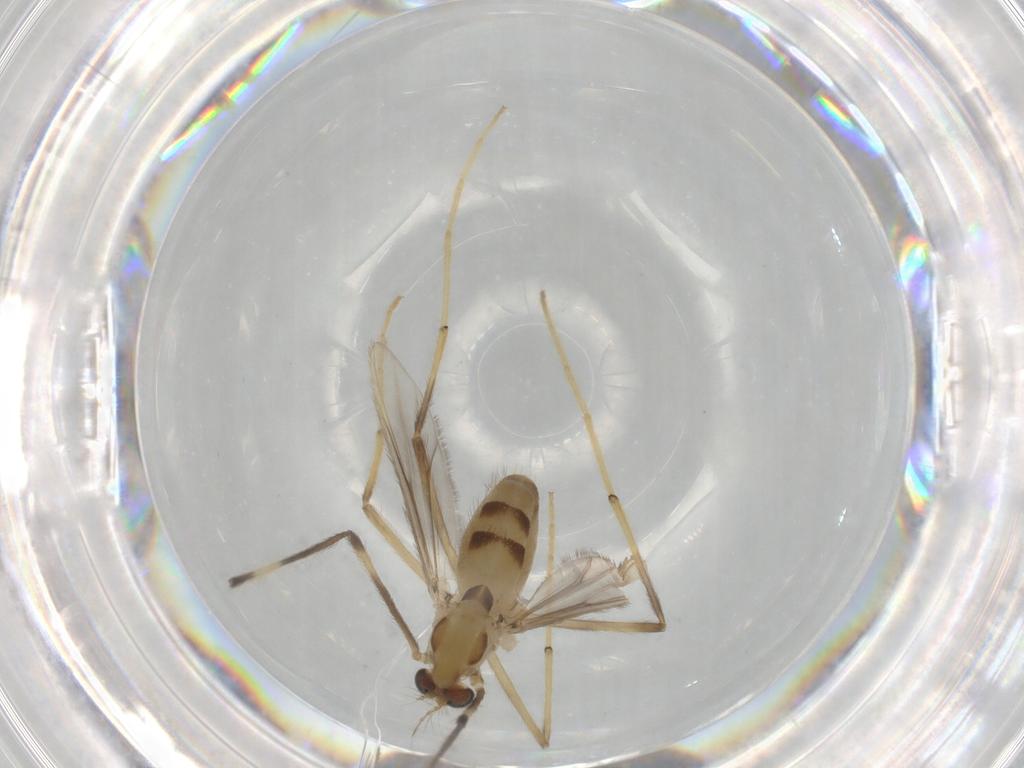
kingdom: Animalia
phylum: Arthropoda
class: Insecta
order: Diptera
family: Chironomidae
